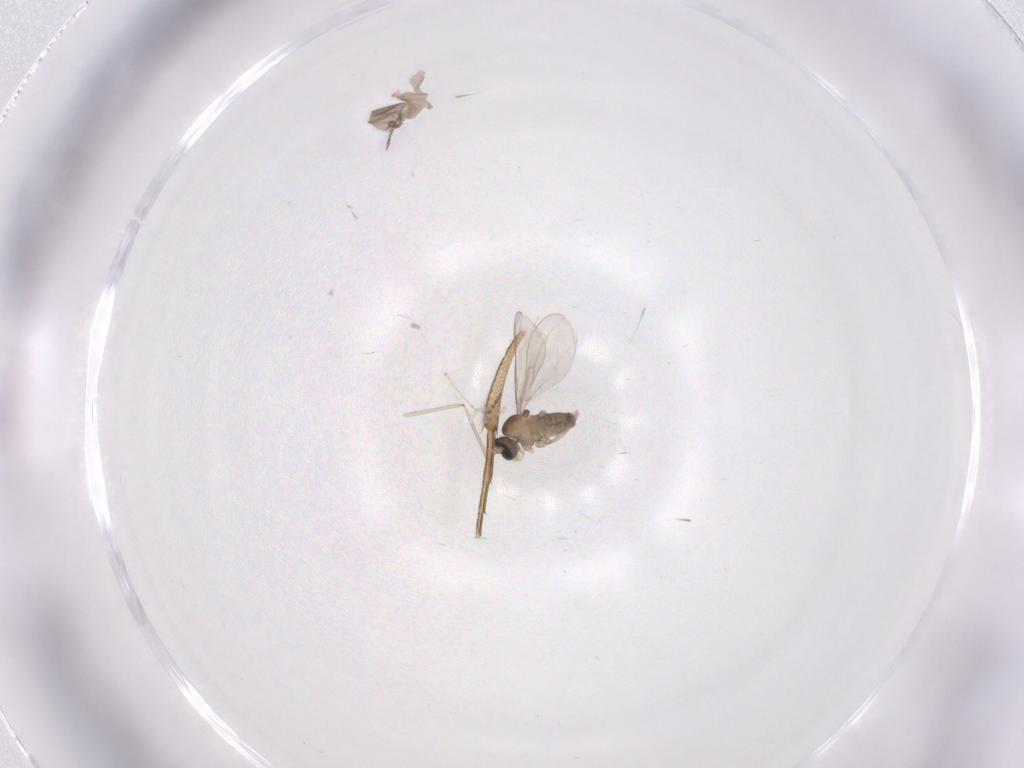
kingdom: Animalia
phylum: Arthropoda
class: Insecta
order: Diptera
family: Cecidomyiidae
